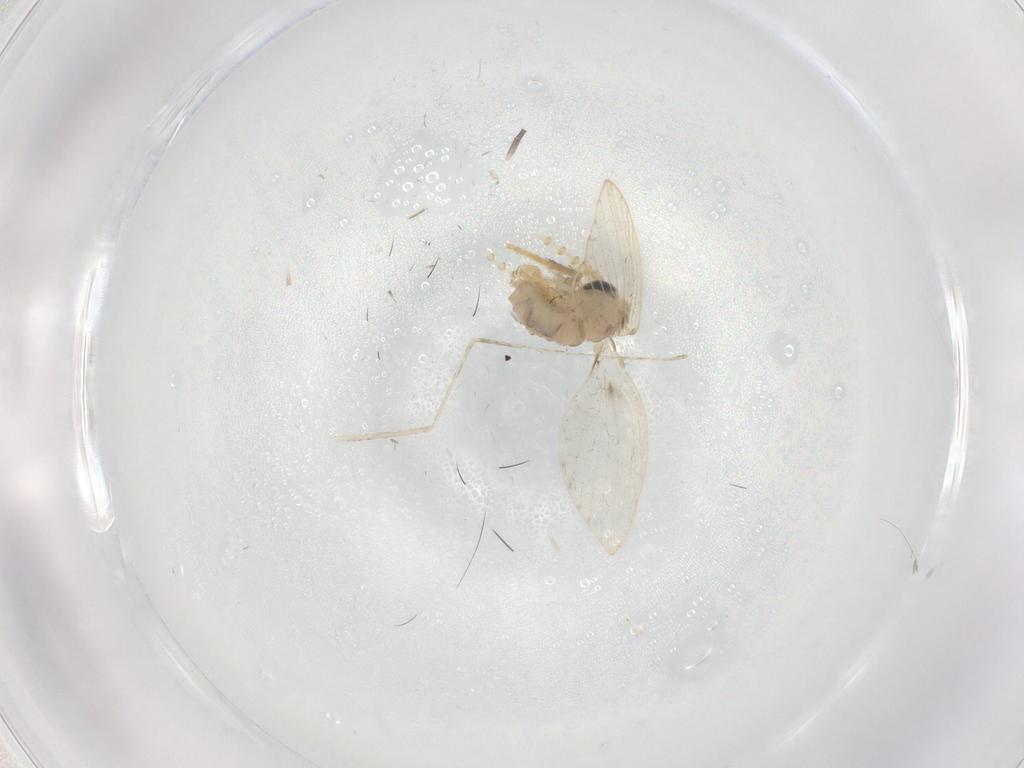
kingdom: Animalia
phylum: Arthropoda
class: Insecta
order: Diptera
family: Psychodidae
